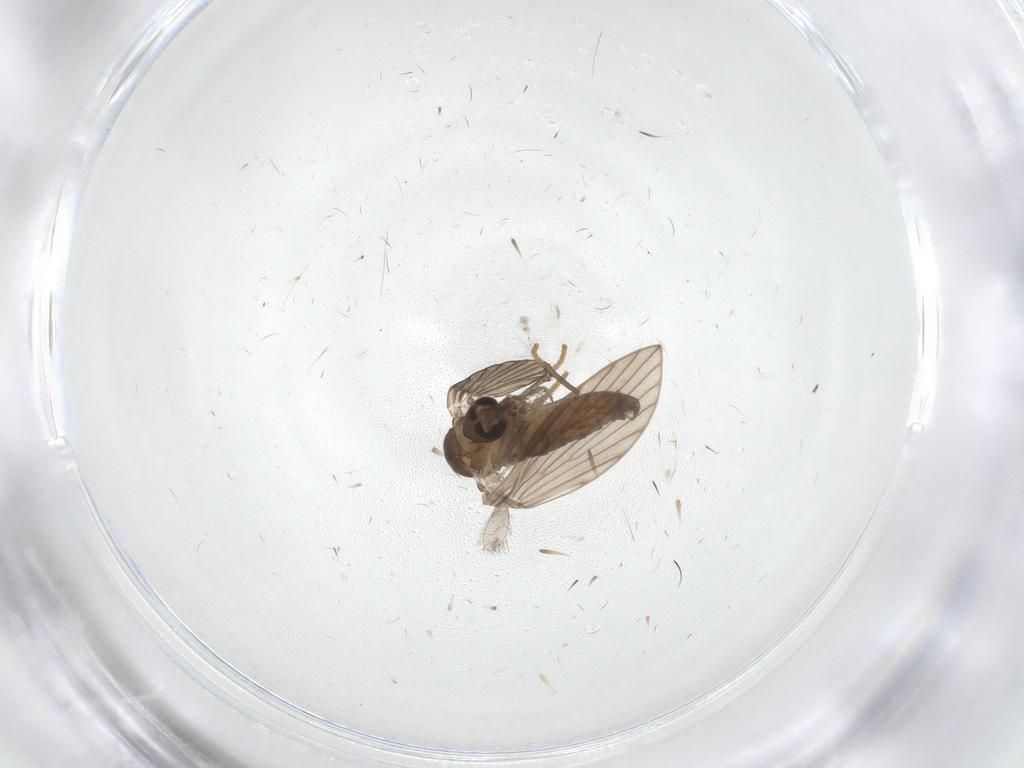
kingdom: Animalia
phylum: Arthropoda
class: Insecta
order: Diptera
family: Psychodidae
